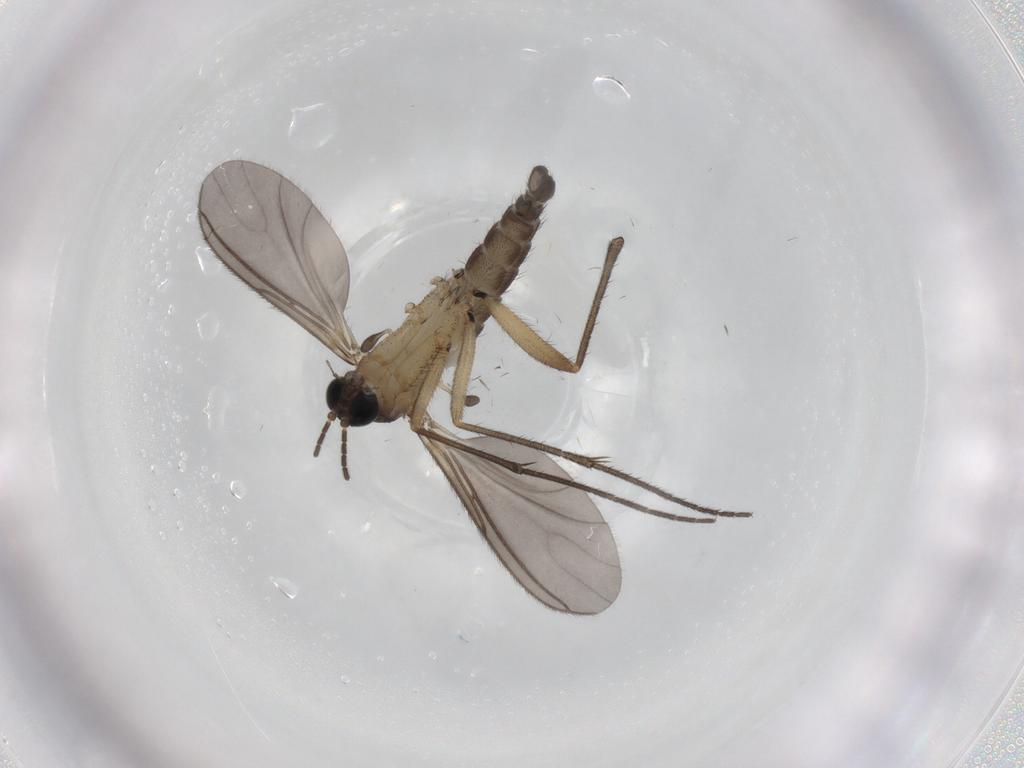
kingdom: Animalia
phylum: Arthropoda
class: Insecta
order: Diptera
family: Sciaridae
